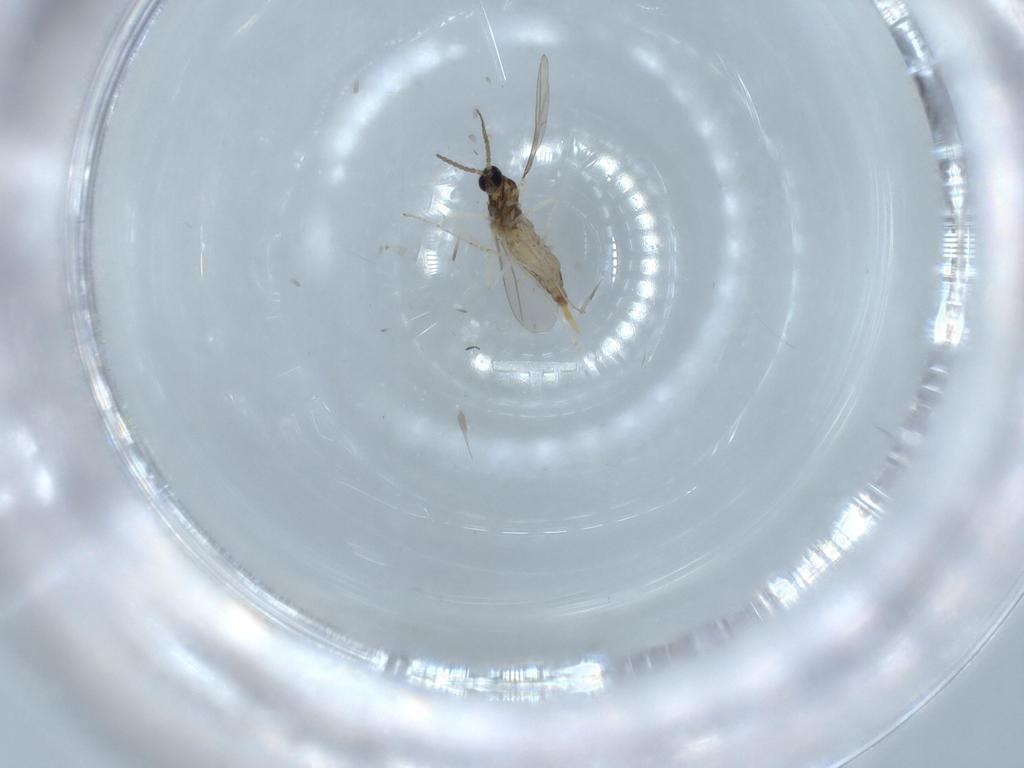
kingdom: Animalia
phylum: Arthropoda
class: Insecta
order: Diptera
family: Cecidomyiidae
